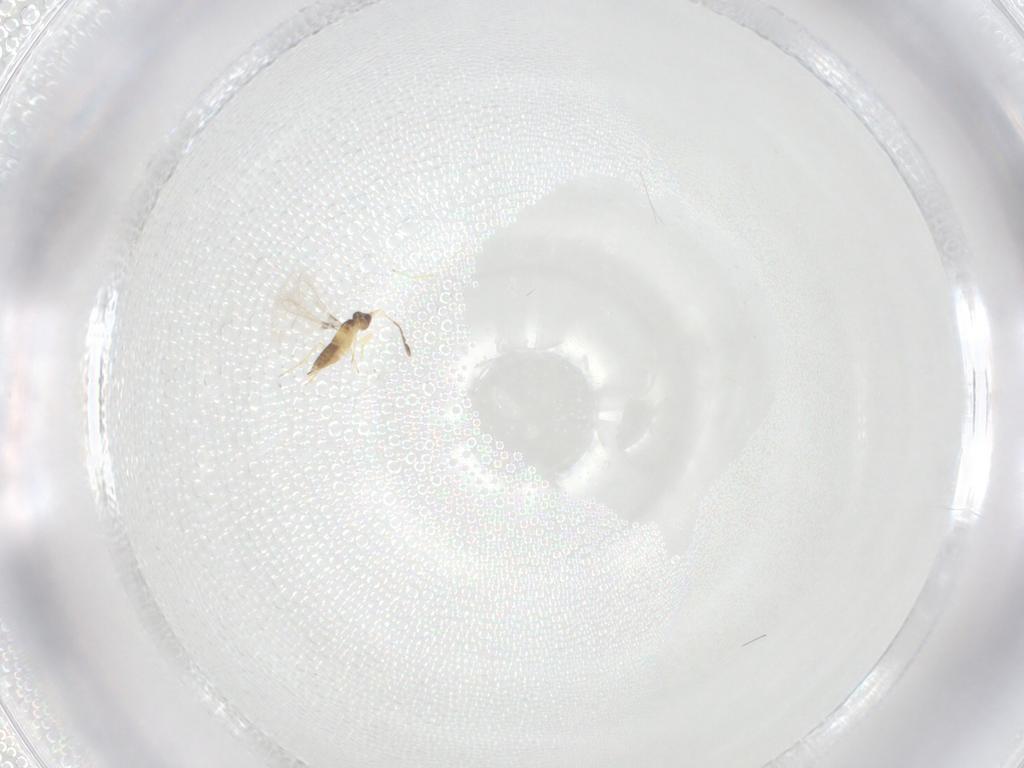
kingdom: Animalia
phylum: Arthropoda
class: Insecta
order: Hymenoptera
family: Mymaridae
